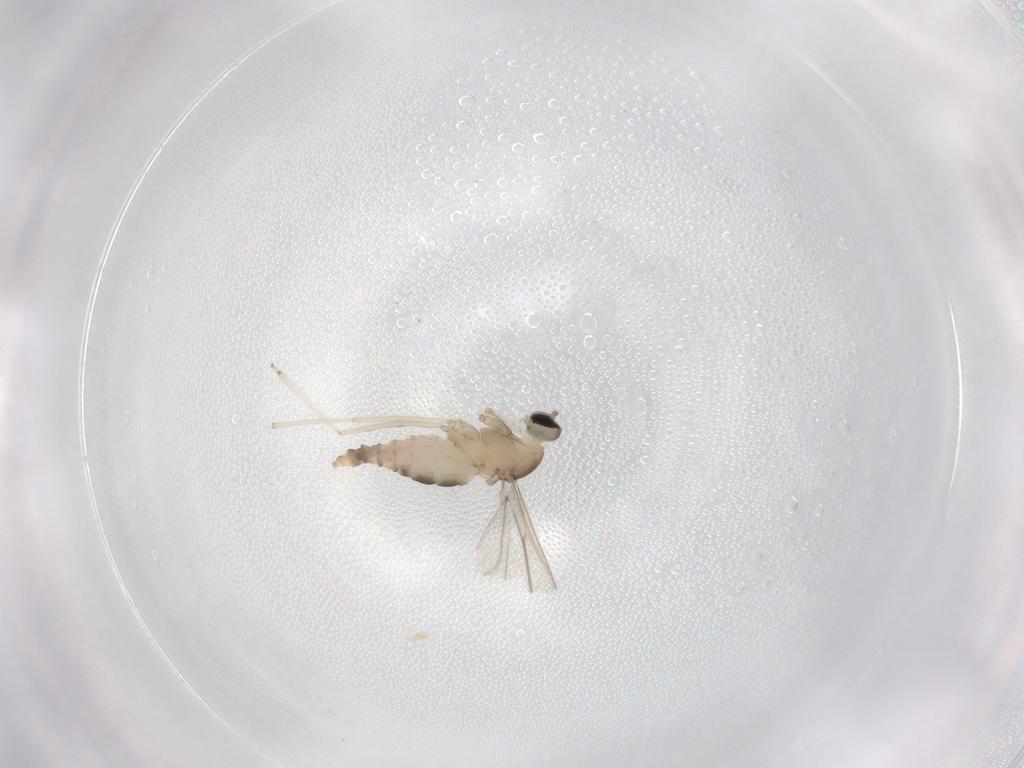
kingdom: Animalia
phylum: Arthropoda
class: Insecta
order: Diptera
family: Cecidomyiidae
